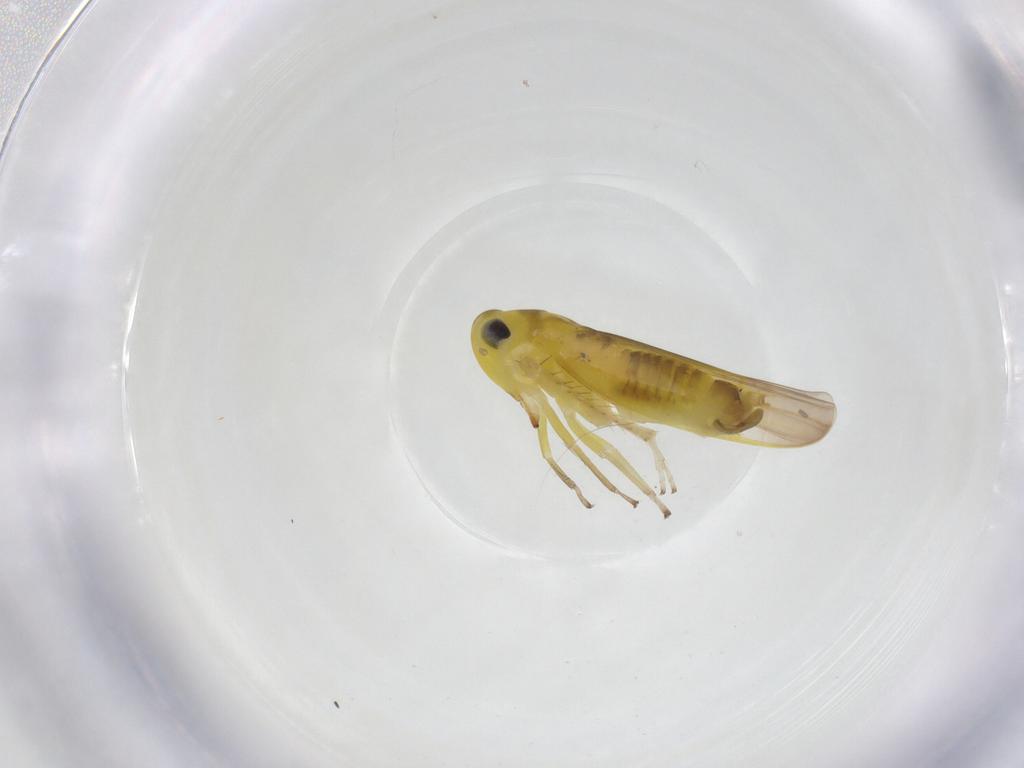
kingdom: Animalia
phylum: Arthropoda
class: Insecta
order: Hemiptera
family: Cicadellidae
